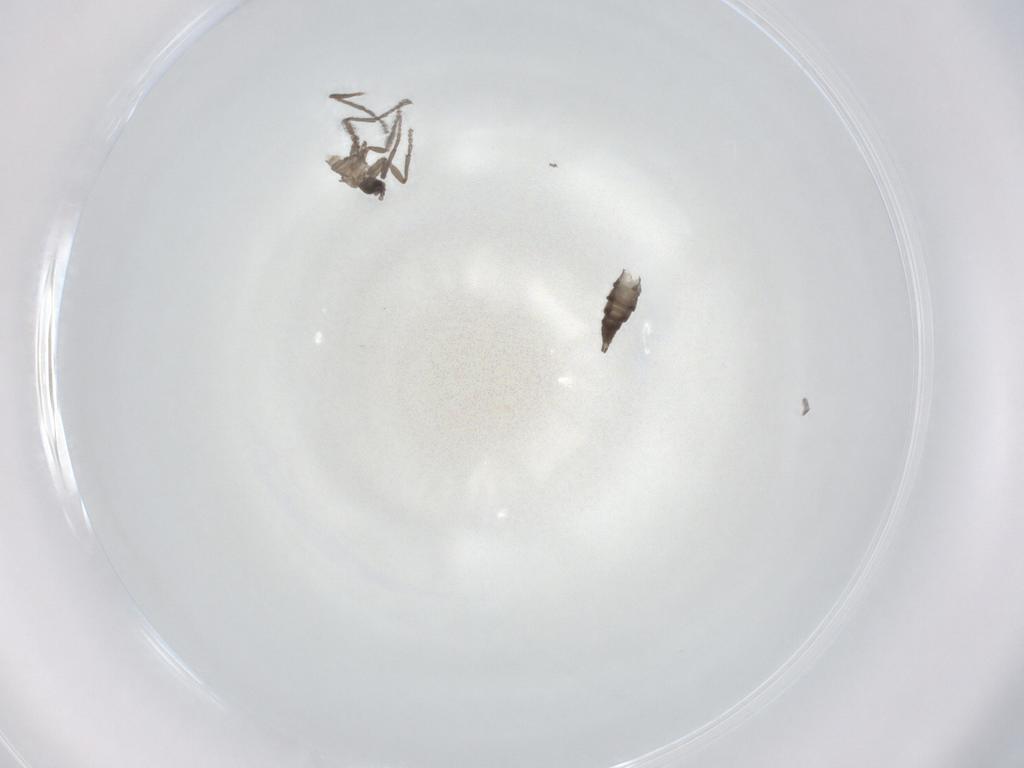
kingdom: Animalia
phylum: Arthropoda
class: Insecta
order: Diptera
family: Sciaridae
